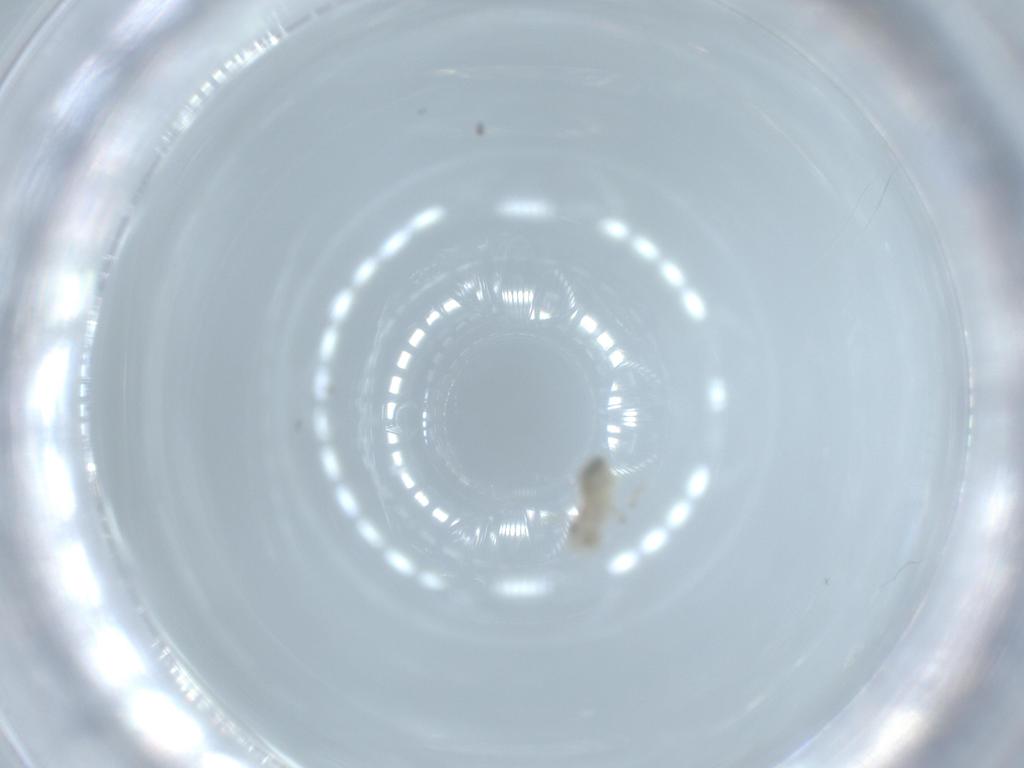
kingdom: Animalia
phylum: Arthropoda
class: Insecta
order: Psocodea
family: Amphipsocidae
